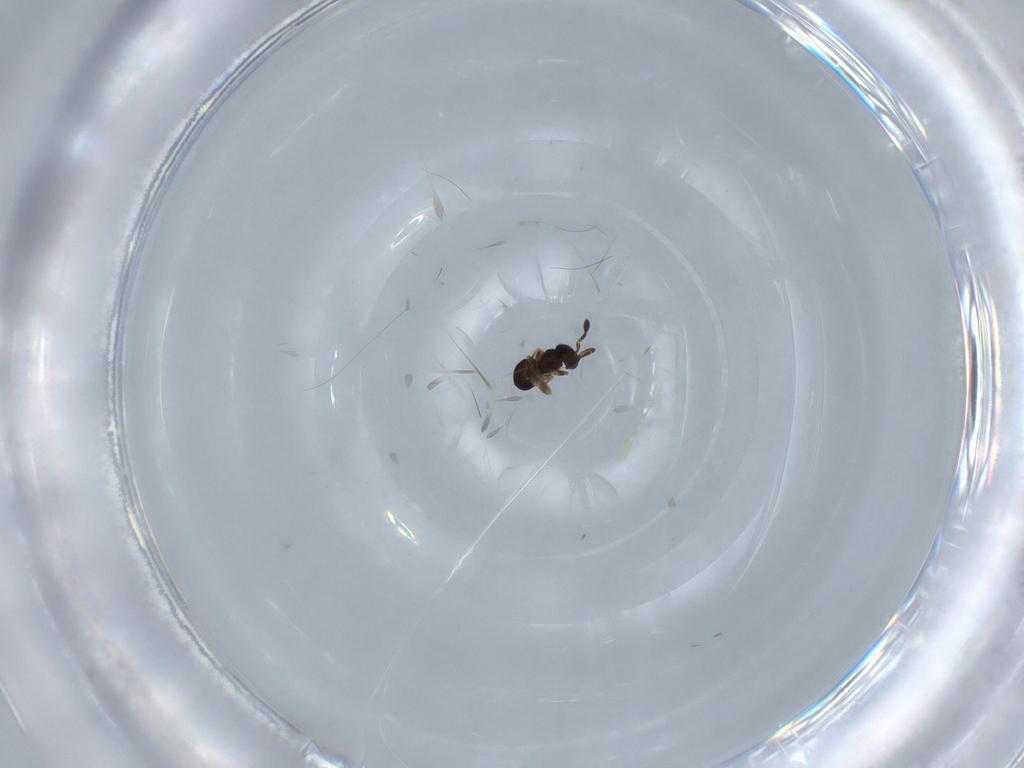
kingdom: Animalia
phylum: Arthropoda
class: Insecta
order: Hymenoptera
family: Scelionidae
